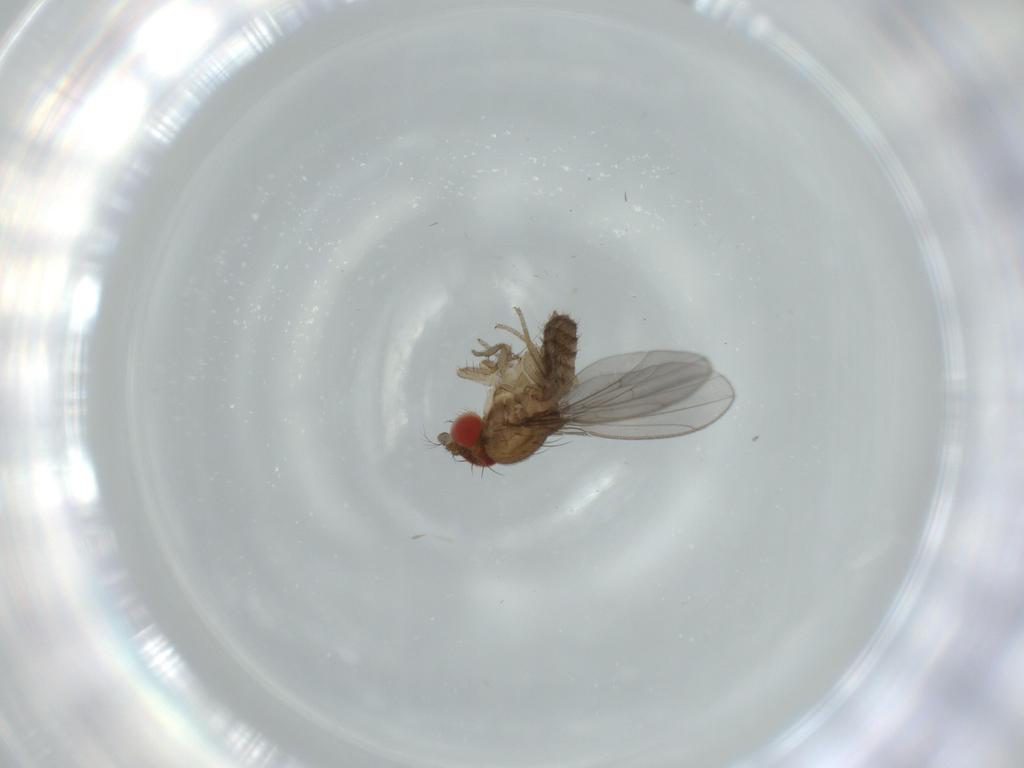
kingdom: Animalia
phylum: Arthropoda
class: Insecta
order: Diptera
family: Drosophilidae
